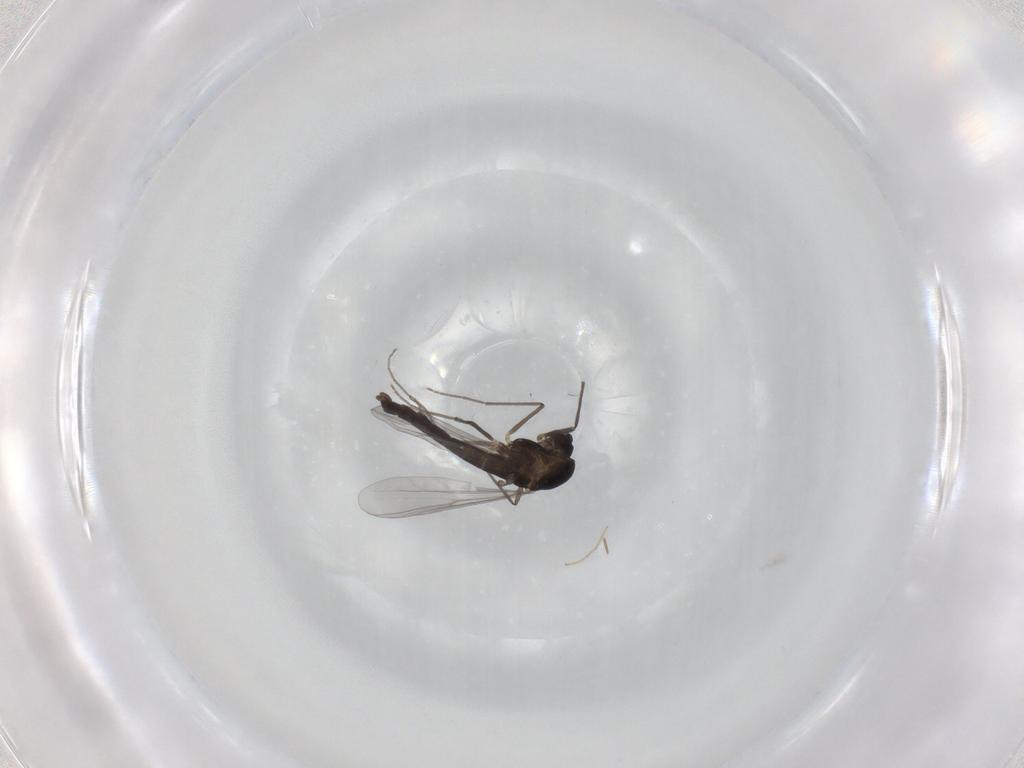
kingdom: Animalia
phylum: Arthropoda
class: Insecta
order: Diptera
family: Chironomidae
